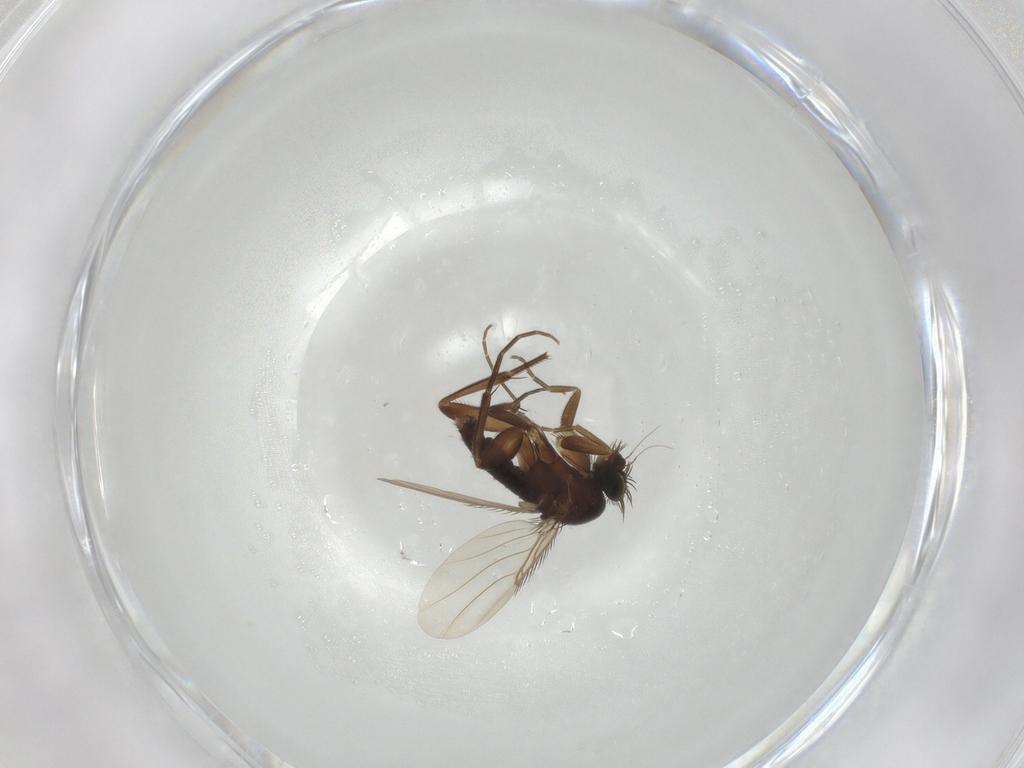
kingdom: Animalia
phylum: Arthropoda
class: Insecta
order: Diptera
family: Phoridae
